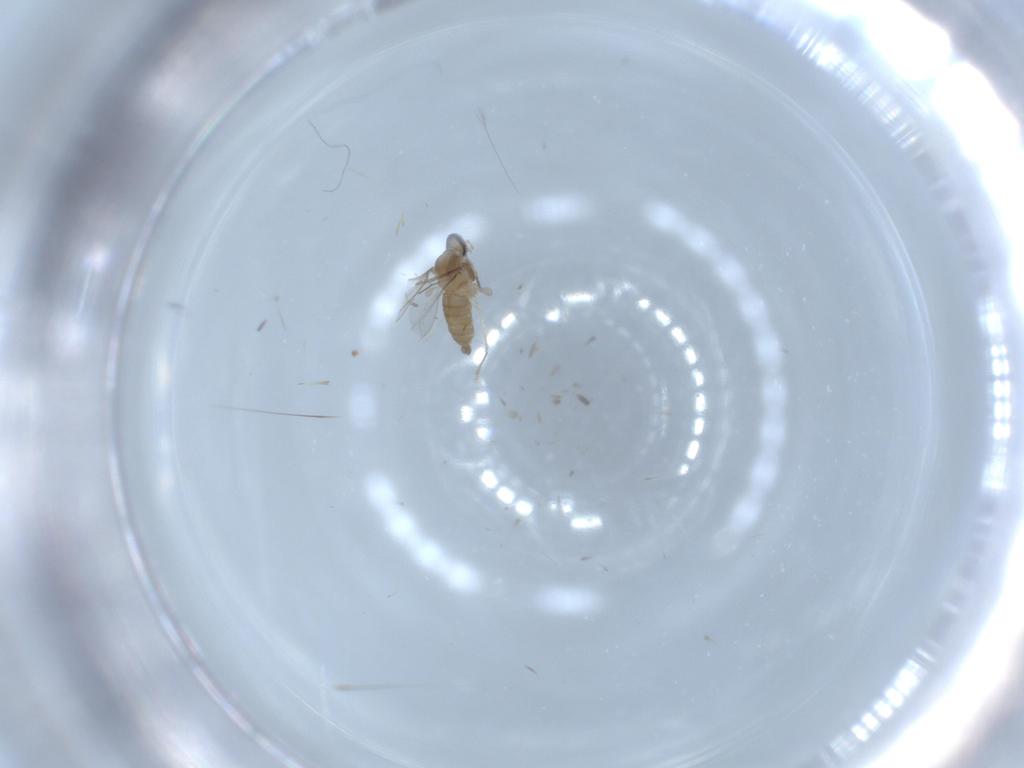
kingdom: Animalia
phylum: Arthropoda
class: Insecta
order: Diptera
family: Cecidomyiidae
